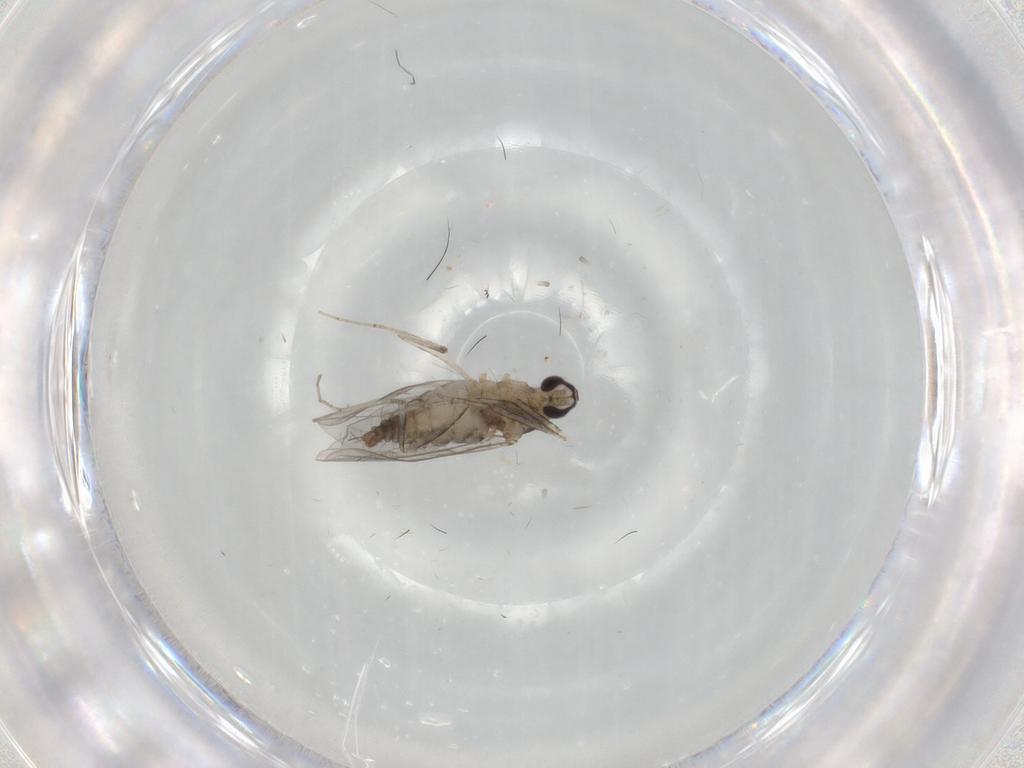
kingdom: Animalia
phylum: Arthropoda
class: Insecta
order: Diptera
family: Cecidomyiidae
